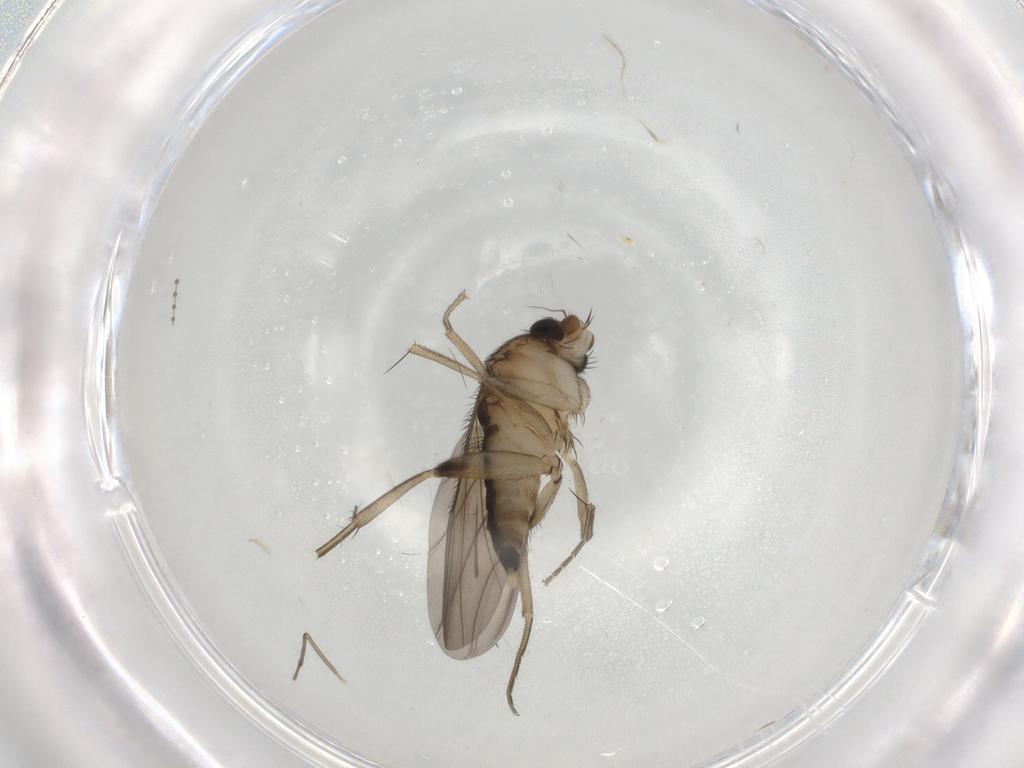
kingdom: Animalia
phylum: Arthropoda
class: Insecta
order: Diptera
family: Phoridae
